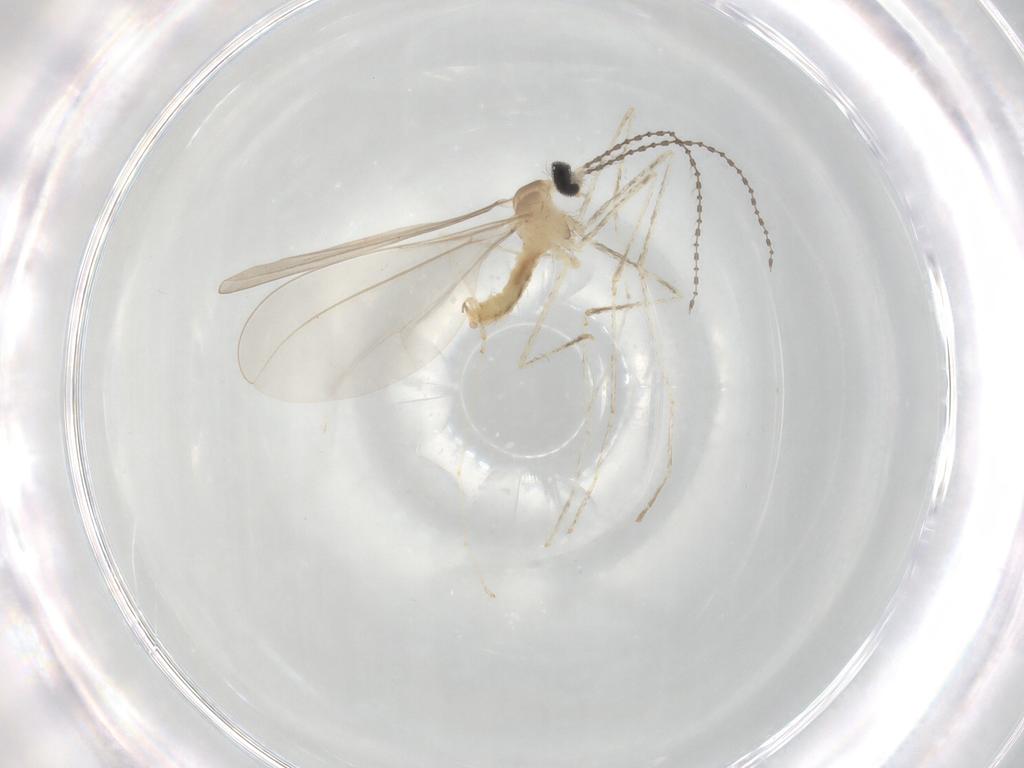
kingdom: Animalia
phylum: Arthropoda
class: Insecta
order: Diptera
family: Cecidomyiidae
